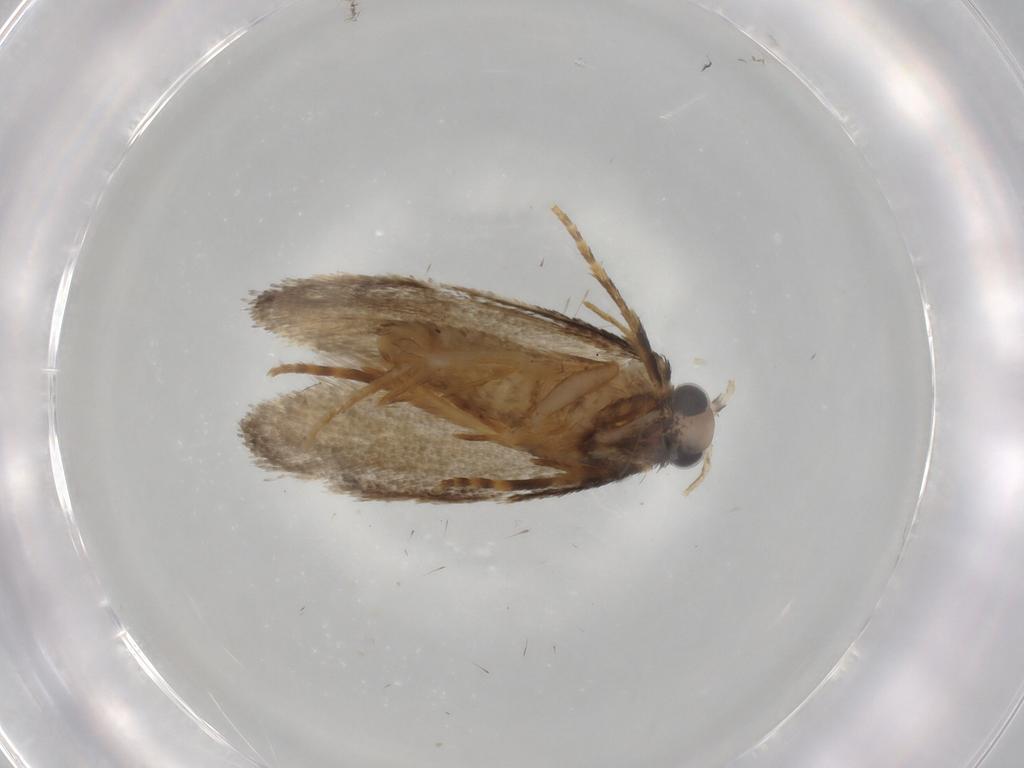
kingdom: Animalia
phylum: Arthropoda
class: Insecta
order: Lepidoptera
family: Psychidae
